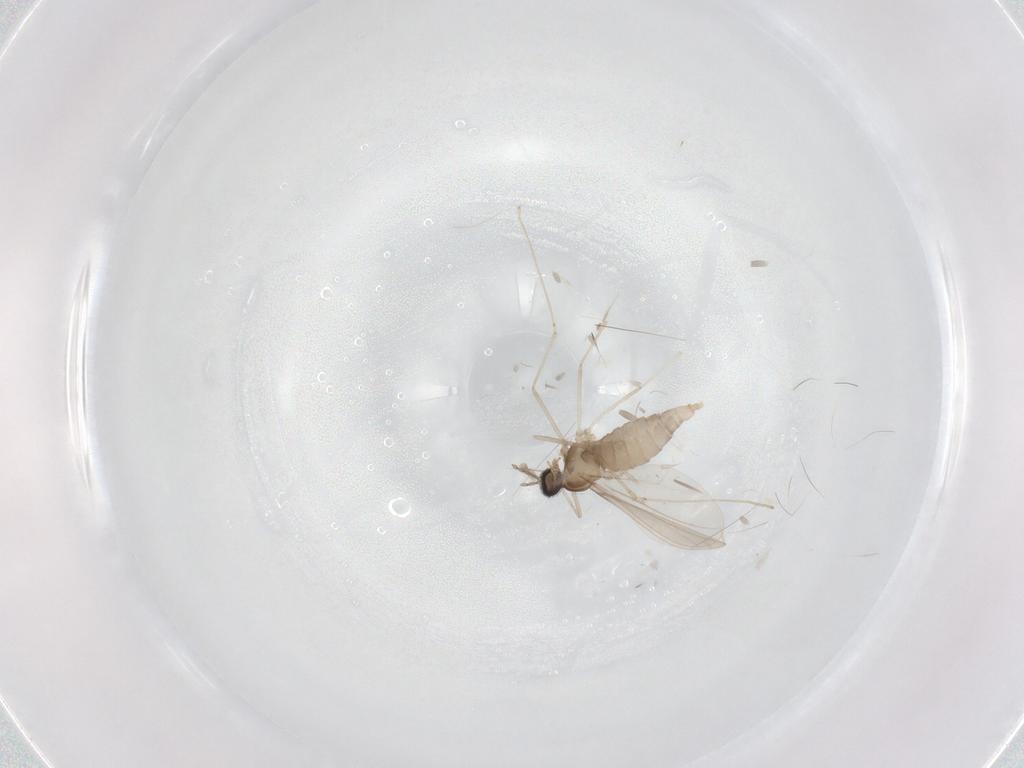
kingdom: Animalia
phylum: Arthropoda
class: Insecta
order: Diptera
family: Cecidomyiidae
